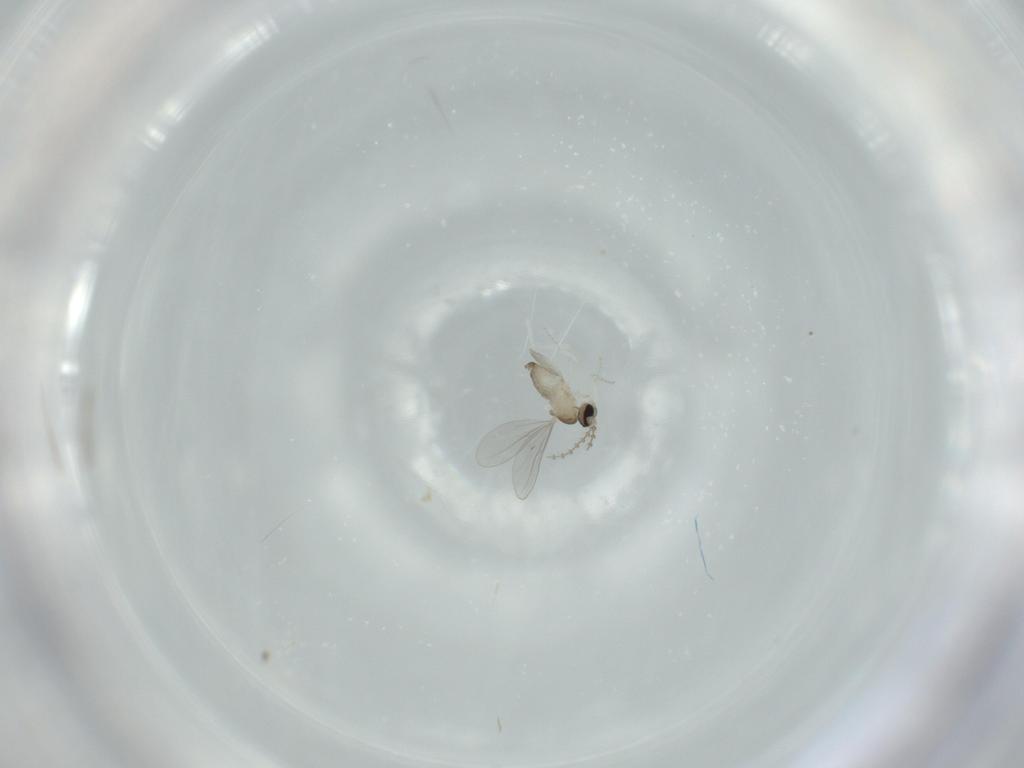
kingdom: Animalia
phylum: Arthropoda
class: Insecta
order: Diptera
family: Cecidomyiidae
